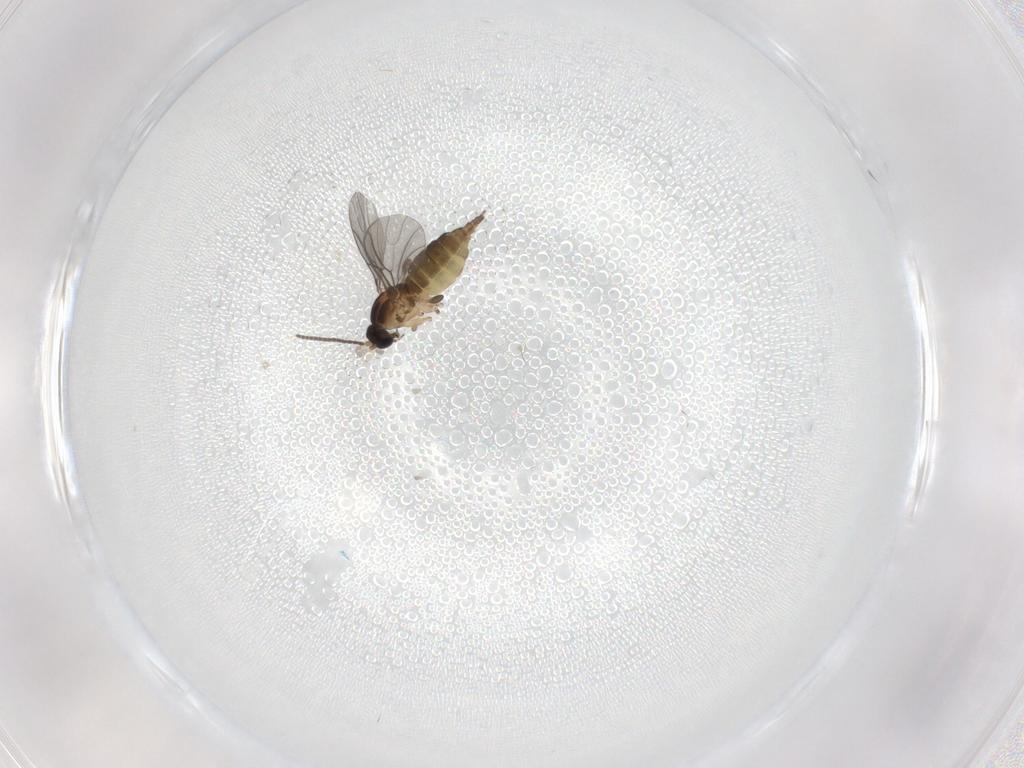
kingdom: Animalia
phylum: Arthropoda
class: Insecta
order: Diptera
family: Sciaridae
